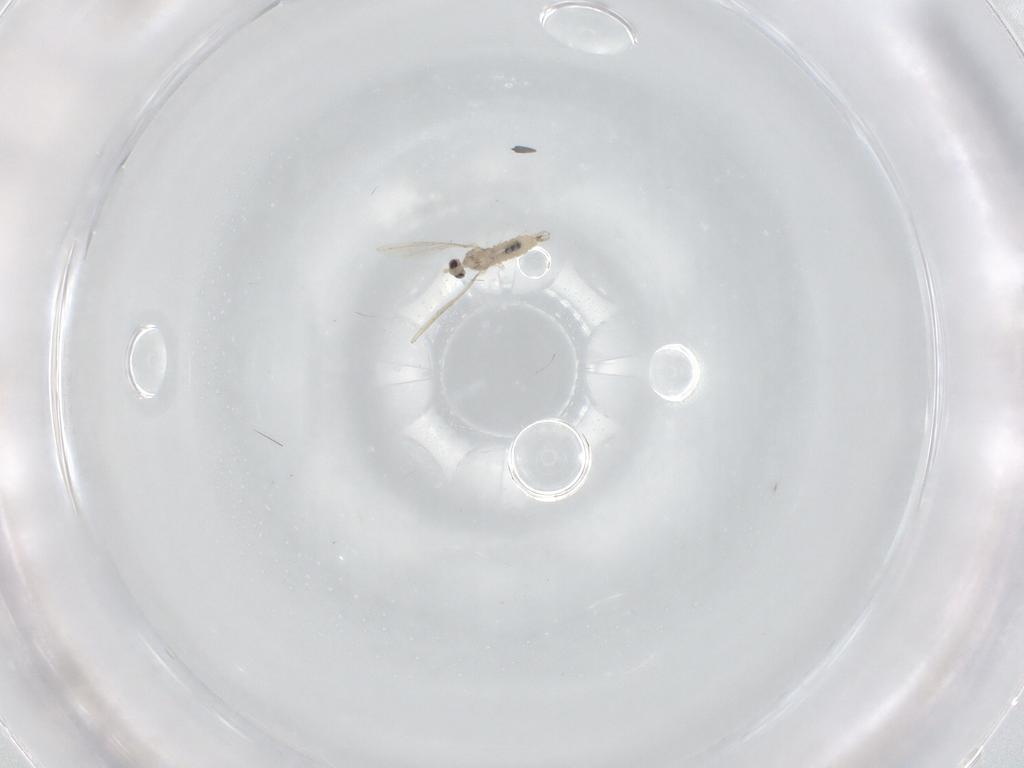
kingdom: Animalia
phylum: Arthropoda
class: Insecta
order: Diptera
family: Cecidomyiidae
